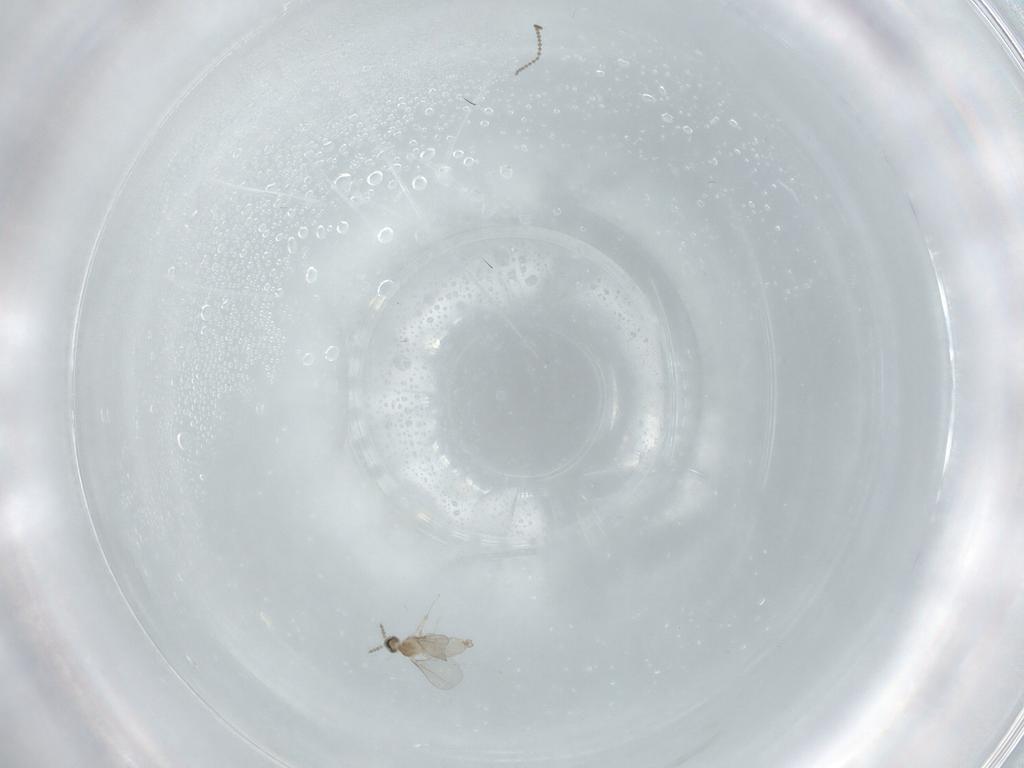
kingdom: Animalia
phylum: Arthropoda
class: Insecta
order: Diptera
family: Cecidomyiidae
